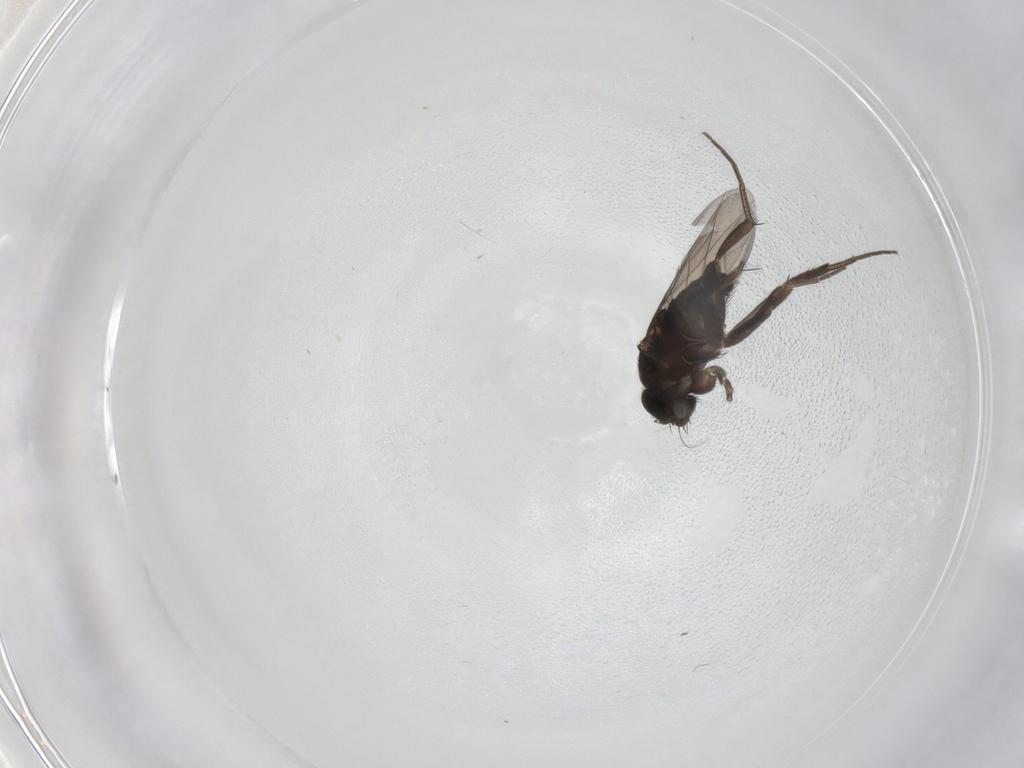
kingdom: Animalia
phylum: Arthropoda
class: Insecta
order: Diptera
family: Phoridae
